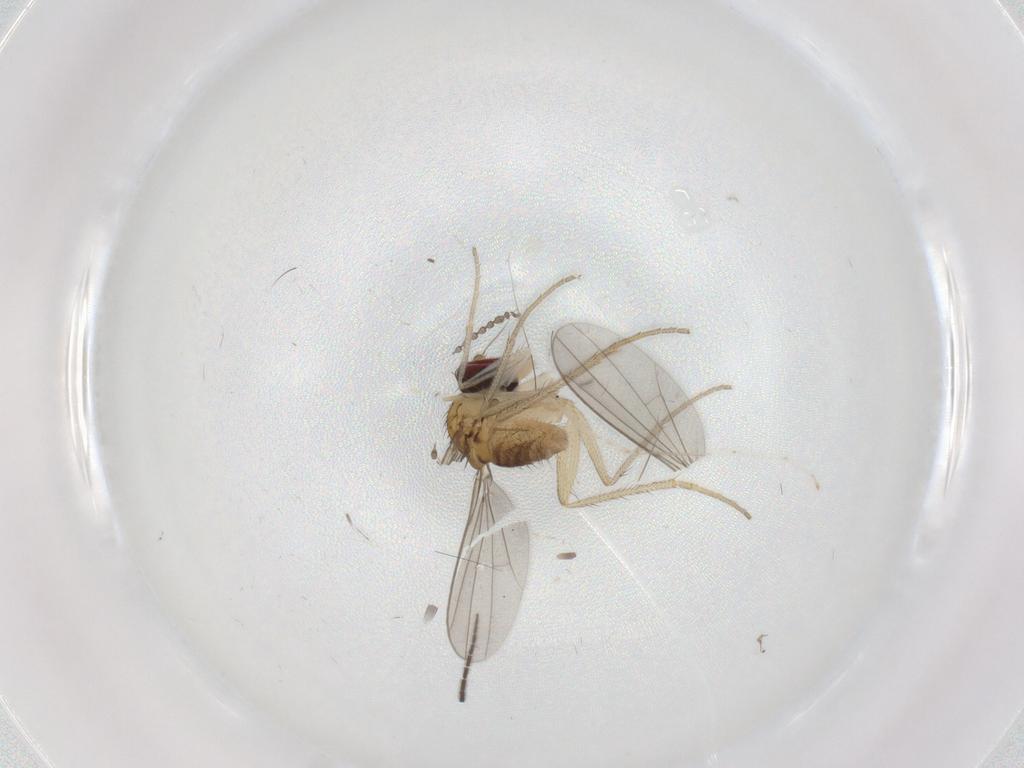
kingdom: Animalia
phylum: Arthropoda
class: Insecta
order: Diptera
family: Dolichopodidae
